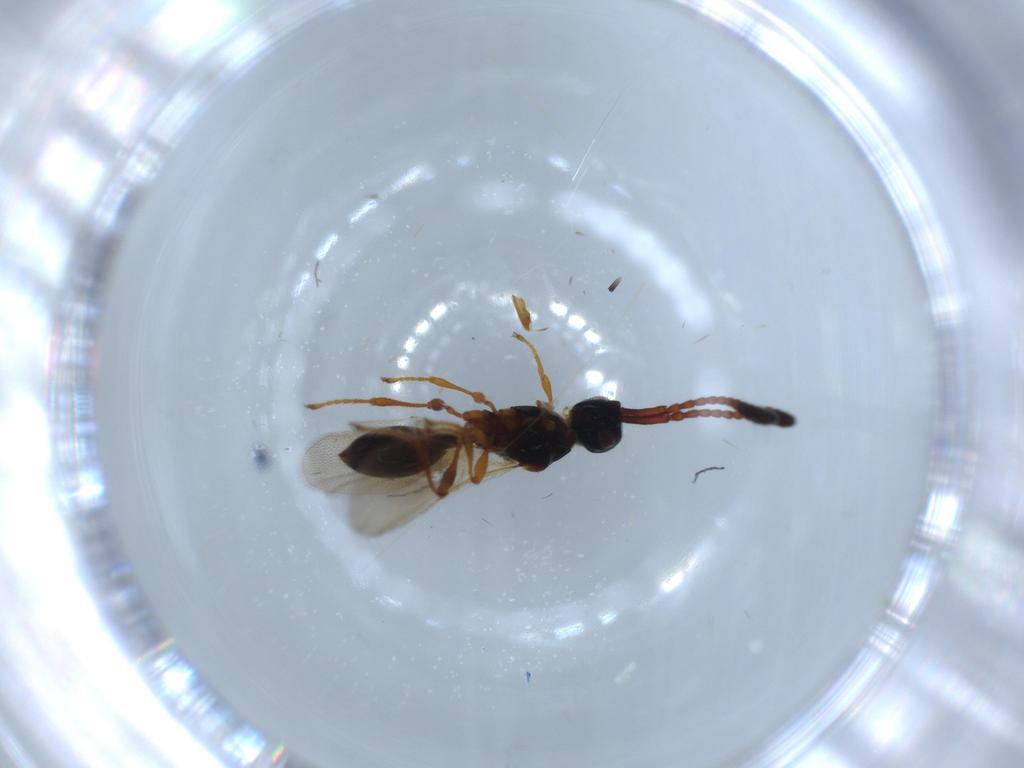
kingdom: Animalia
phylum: Arthropoda
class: Insecta
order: Hymenoptera
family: Diapriidae
